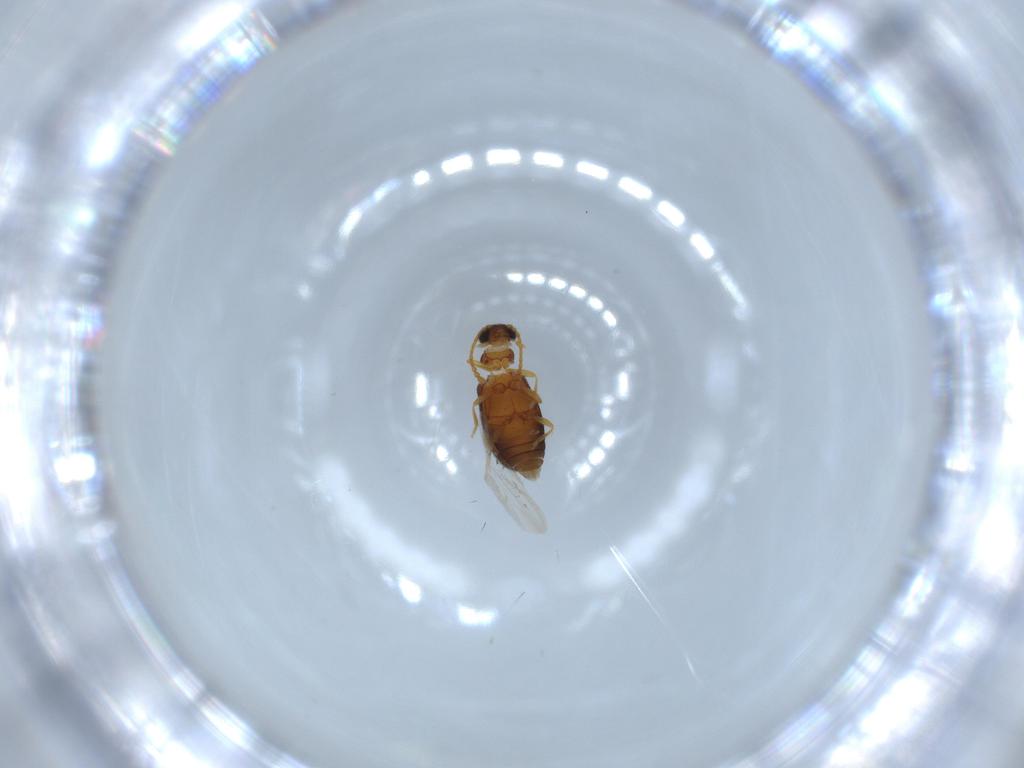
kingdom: Animalia
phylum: Arthropoda
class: Insecta
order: Coleoptera
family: Aderidae
